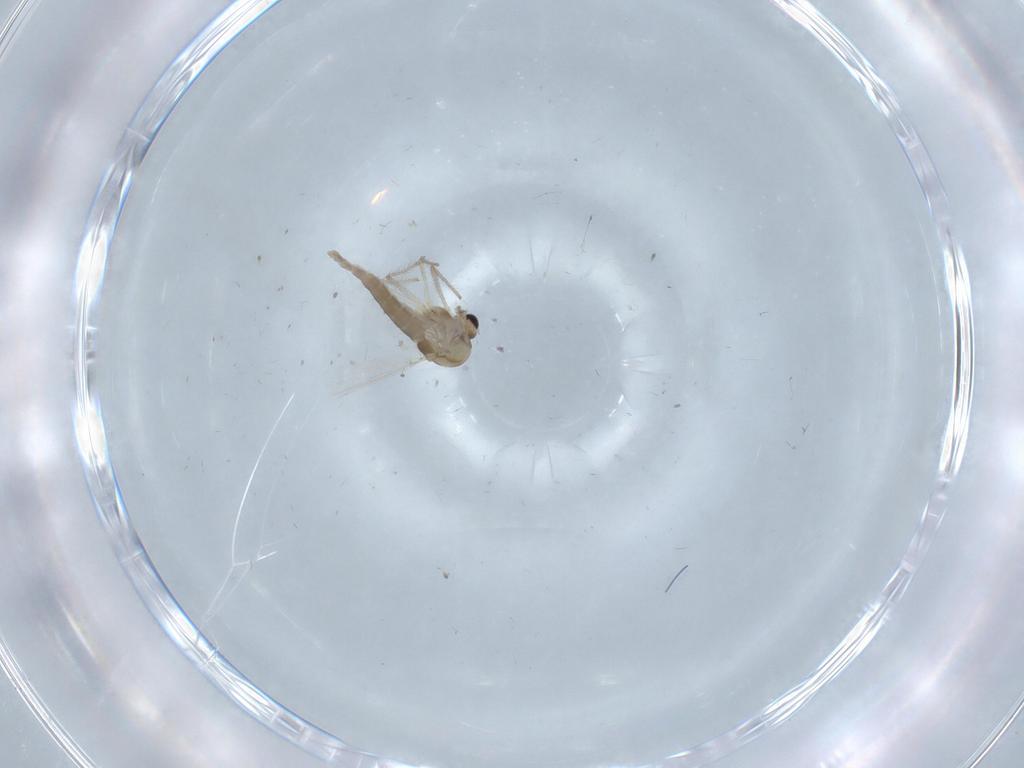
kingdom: Animalia
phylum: Arthropoda
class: Insecta
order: Diptera
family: Chironomidae
